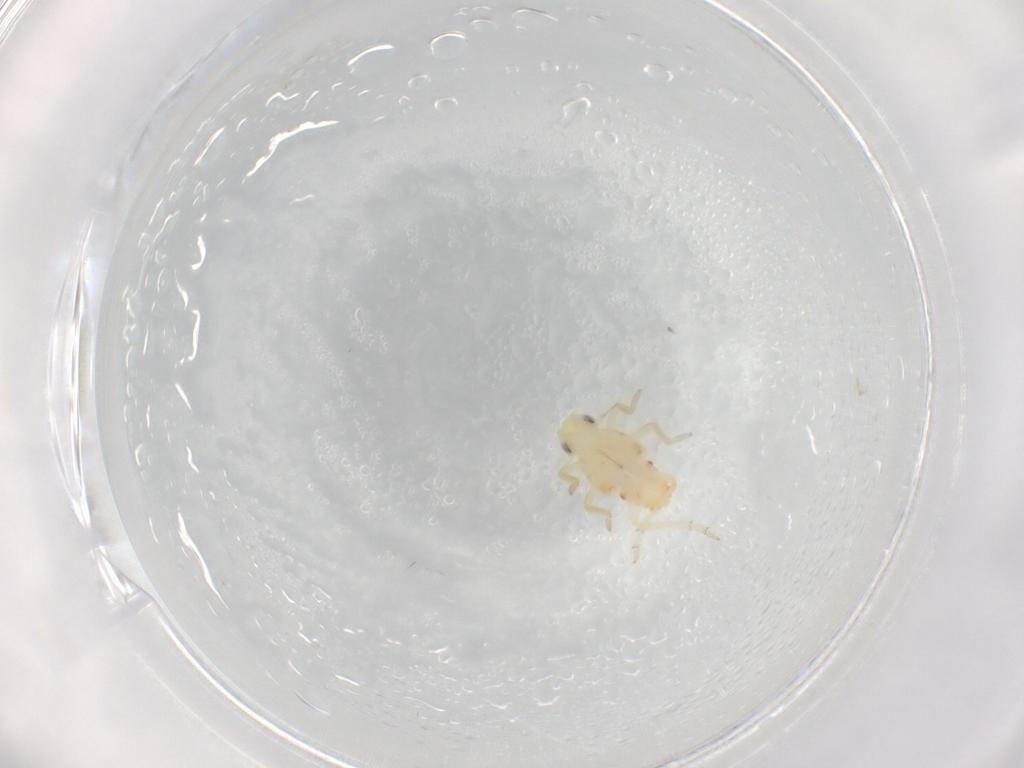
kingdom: Animalia
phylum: Arthropoda
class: Insecta
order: Hemiptera
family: Tropiduchidae
